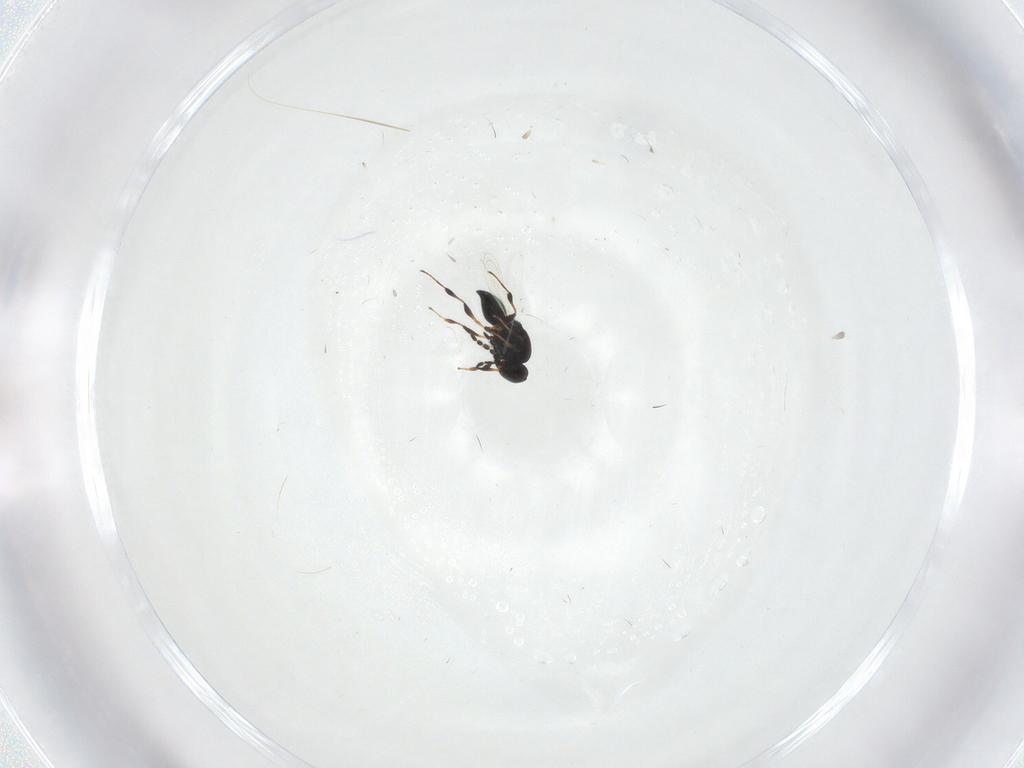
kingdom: Animalia
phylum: Arthropoda
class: Insecta
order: Hymenoptera
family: Platygastridae
